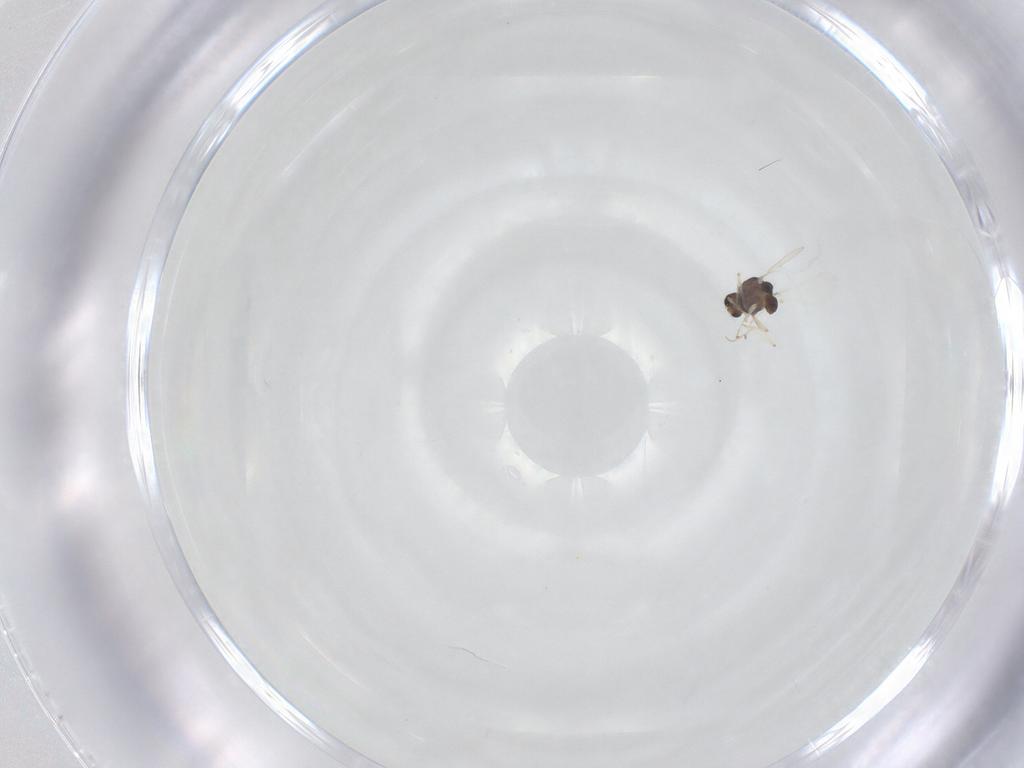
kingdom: Animalia
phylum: Arthropoda
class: Insecta
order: Diptera
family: Chironomidae
